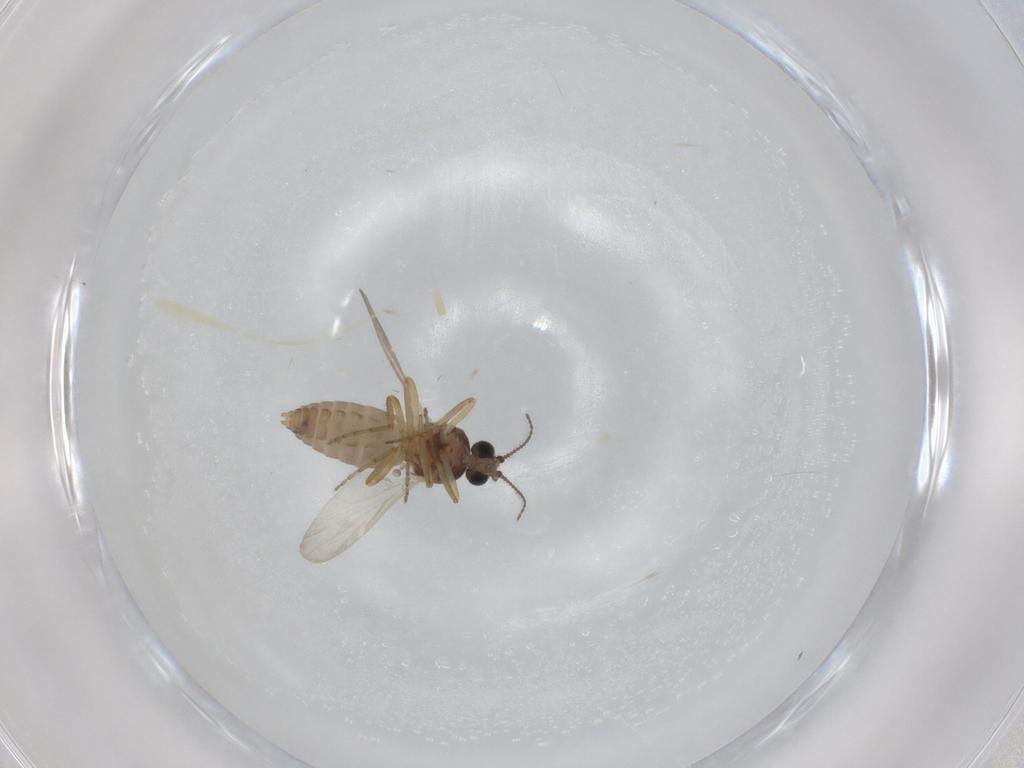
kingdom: Animalia
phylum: Arthropoda
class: Insecta
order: Diptera
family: Ceratopogonidae
